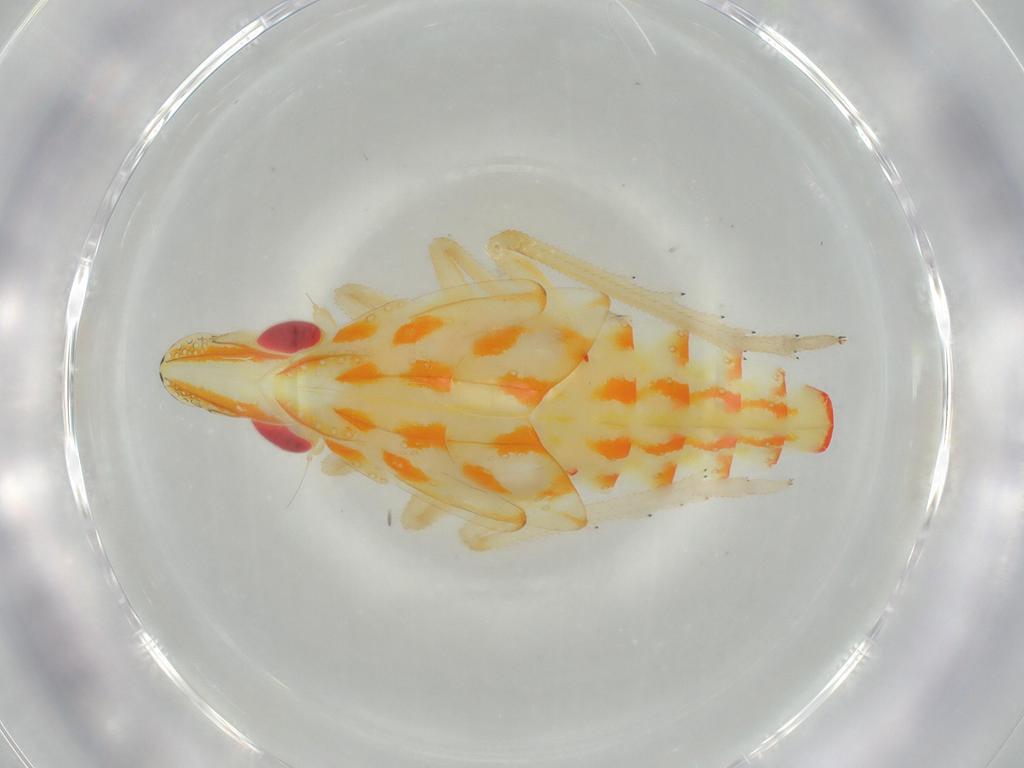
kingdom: Animalia
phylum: Arthropoda
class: Insecta
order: Hemiptera
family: Tropiduchidae
